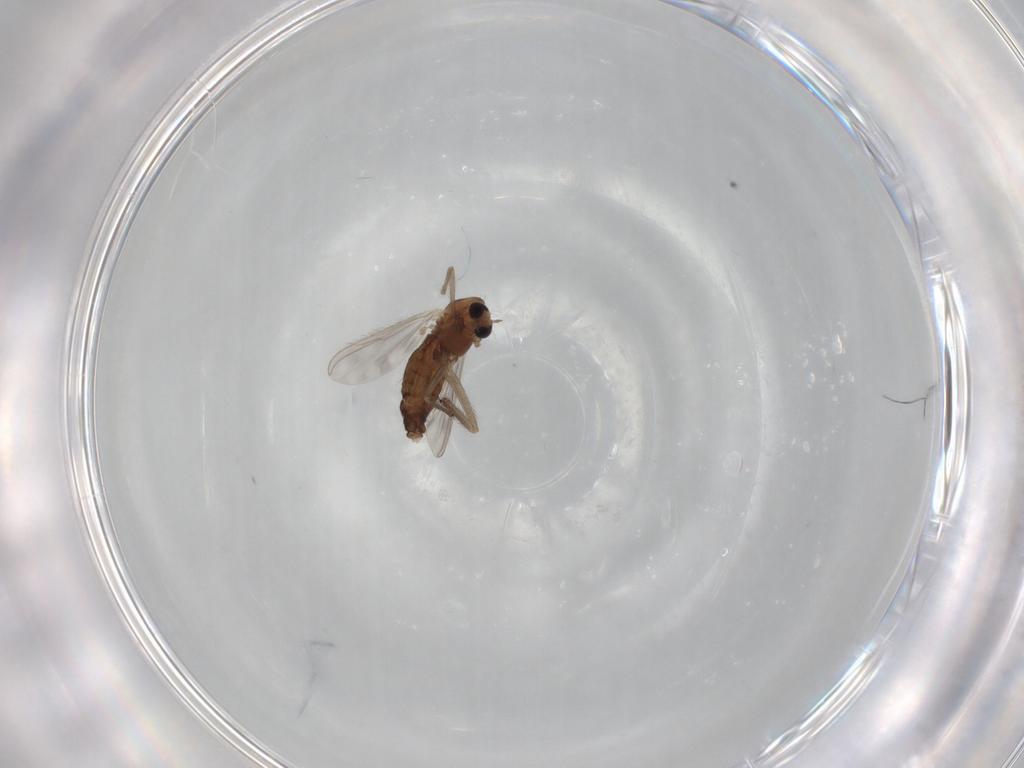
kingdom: Animalia
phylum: Arthropoda
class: Insecta
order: Diptera
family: Chironomidae
